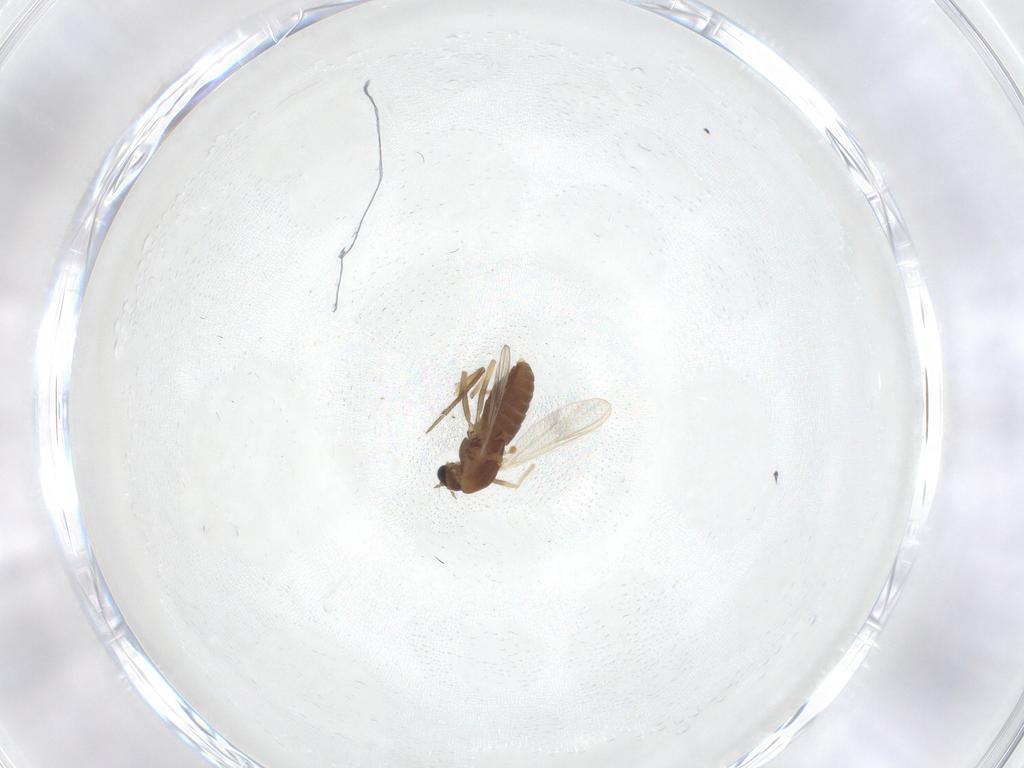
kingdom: Animalia
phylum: Arthropoda
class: Insecta
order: Diptera
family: Chironomidae
